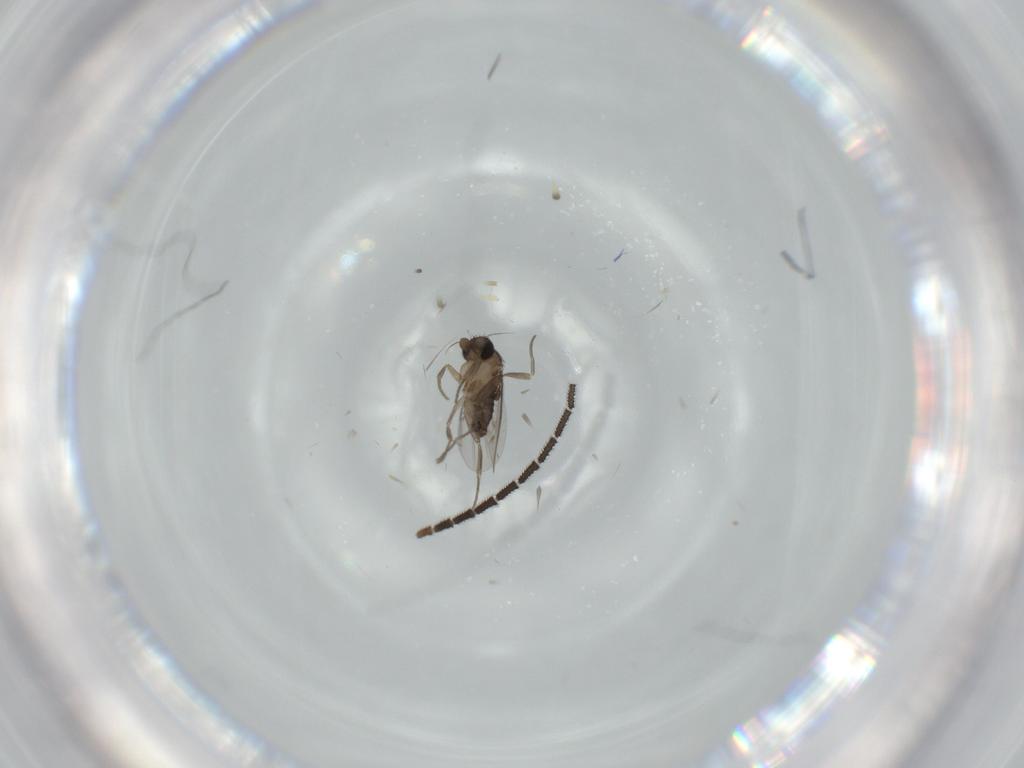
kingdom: Animalia
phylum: Arthropoda
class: Insecta
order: Diptera
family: Sciaridae
